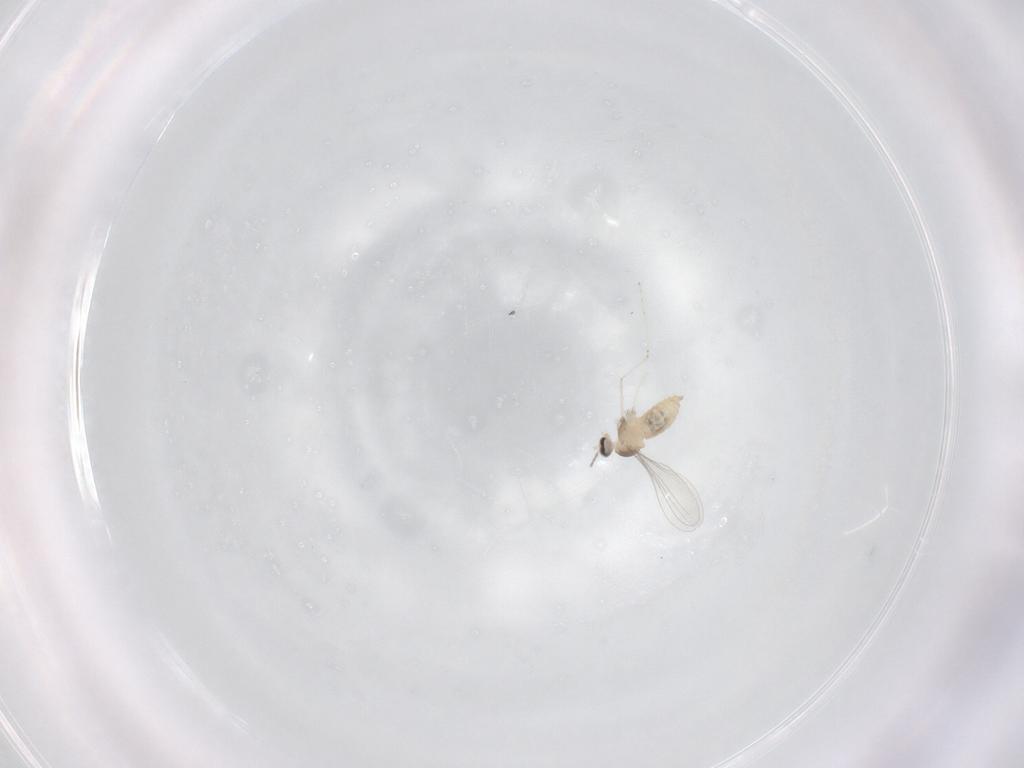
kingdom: Animalia
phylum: Arthropoda
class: Insecta
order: Diptera
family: Cecidomyiidae
